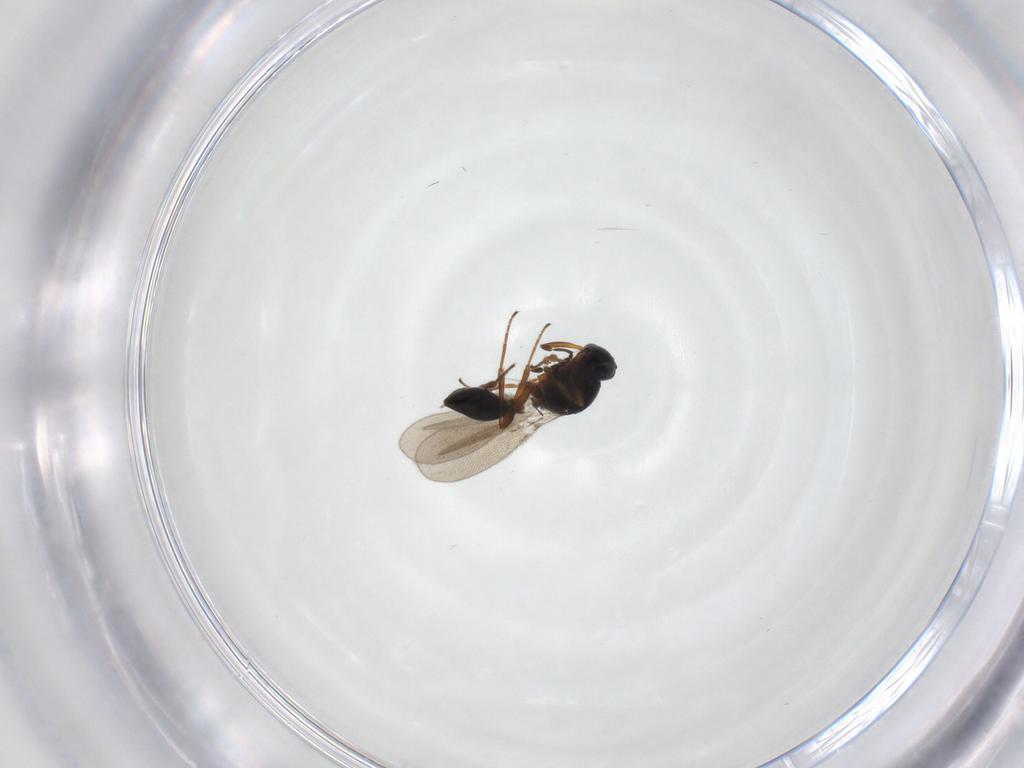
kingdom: Animalia
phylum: Arthropoda
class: Insecta
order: Hymenoptera
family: Platygastridae
